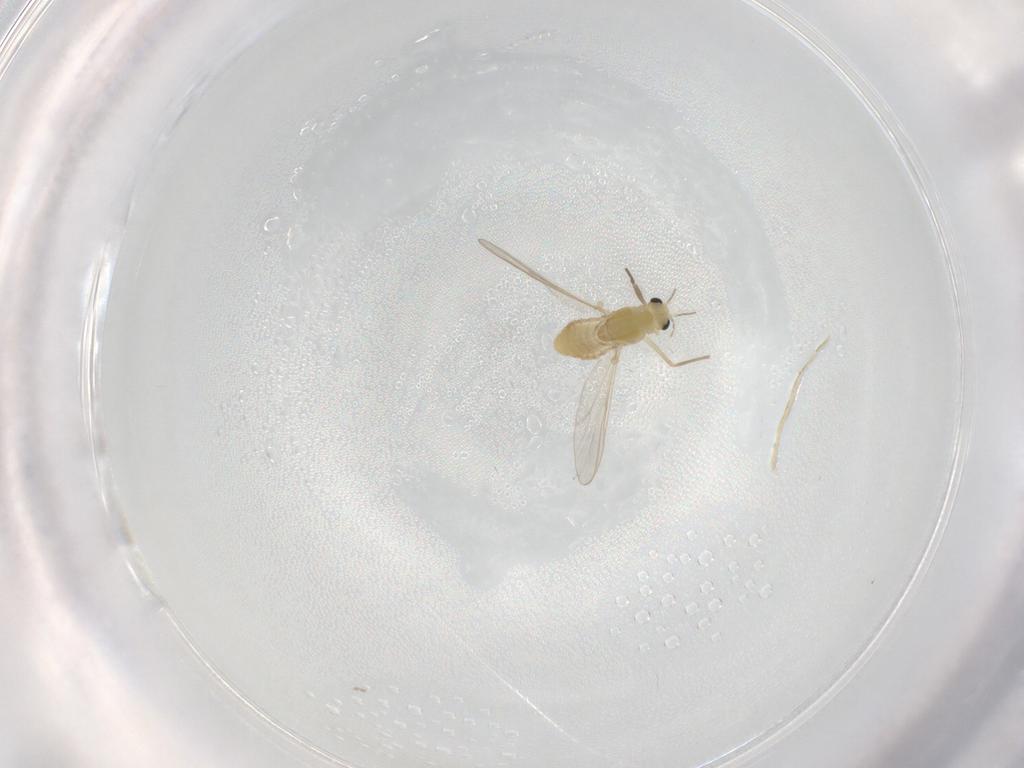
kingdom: Animalia
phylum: Arthropoda
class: Insecta
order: Diptera
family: Chironomidae
